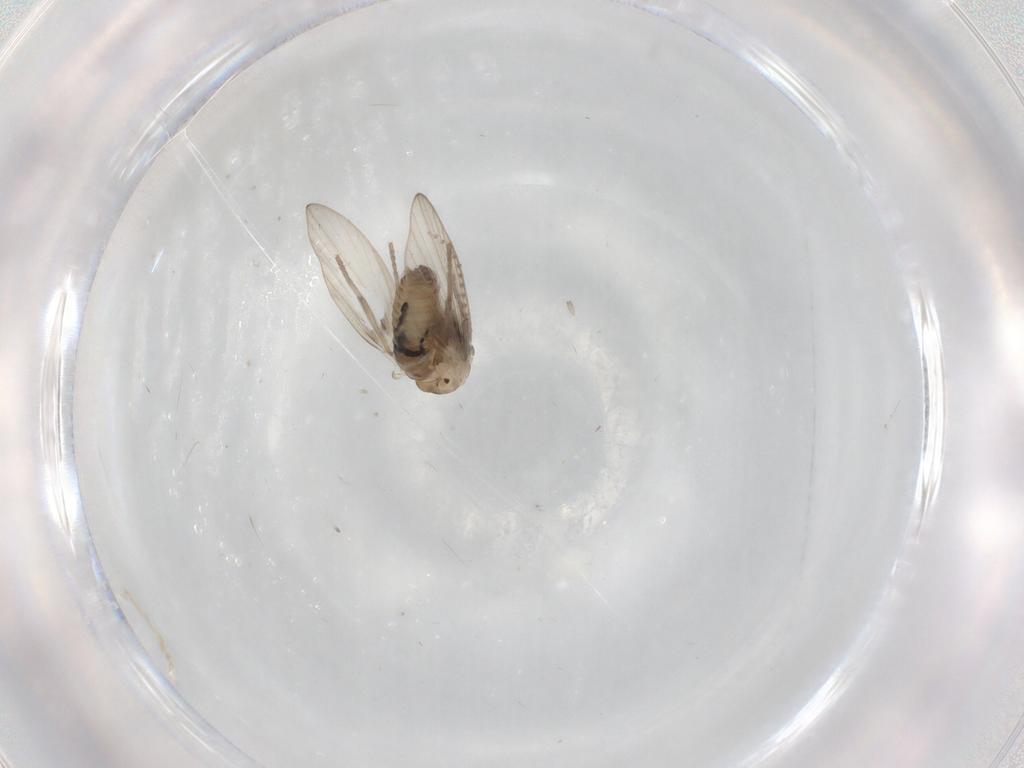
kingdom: Animalia
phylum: Arthropoda
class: Insecta
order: Diptera
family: Psychodidae
